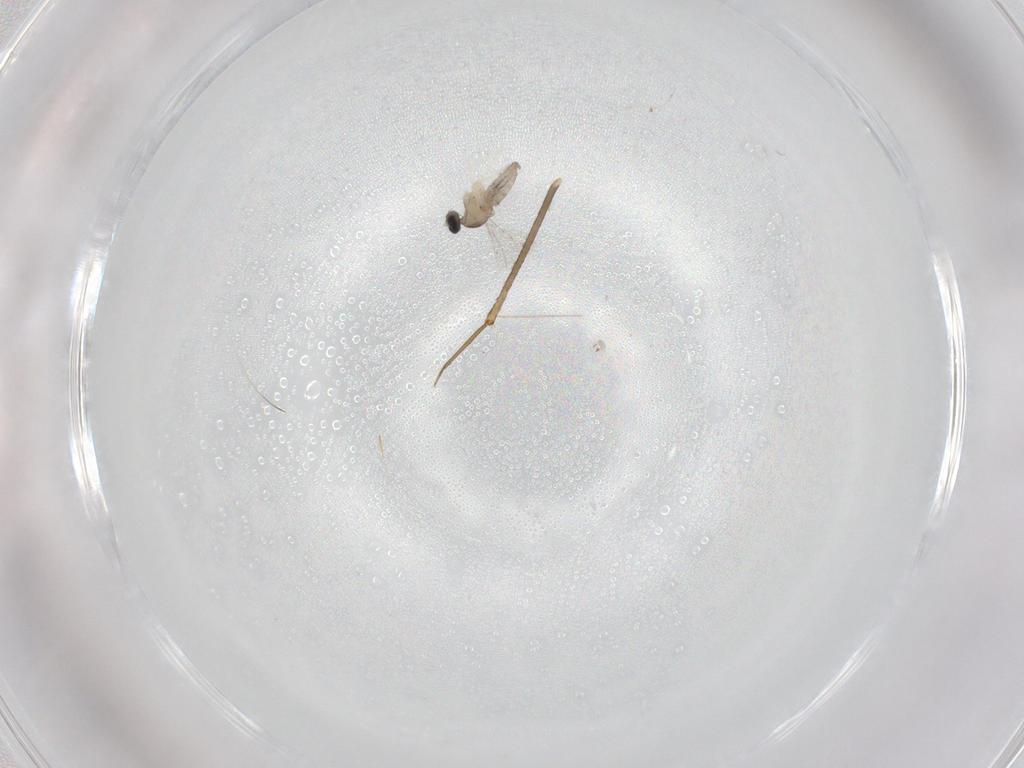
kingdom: Animalia
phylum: Arthropoda
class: Insecta
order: Diptera
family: Cecidomyiidae
